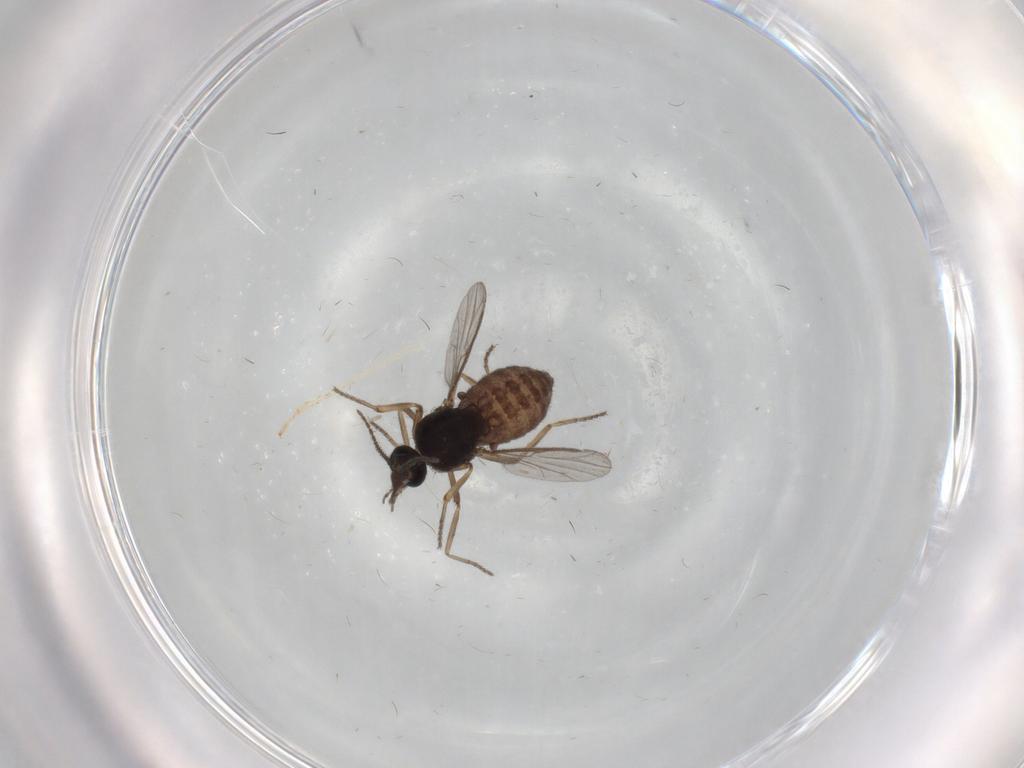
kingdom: Animalia
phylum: Arthropoda
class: Insecta
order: Diptera
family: Ceratopogonidae
